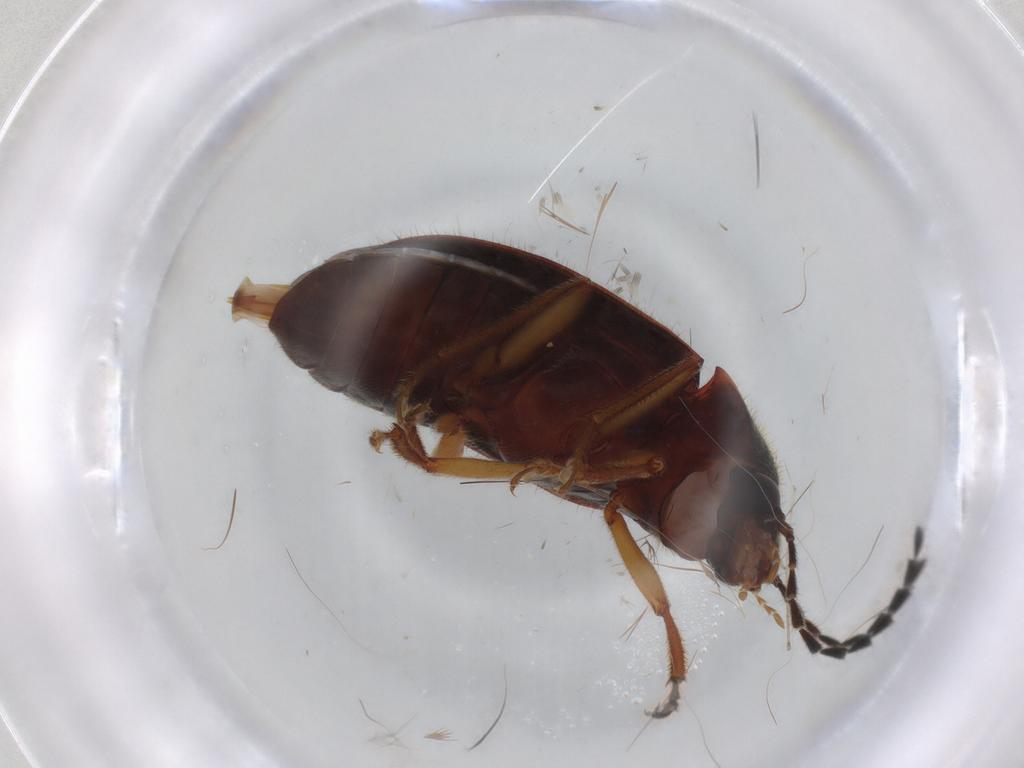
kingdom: Animalia
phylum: Arthropoda
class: Insecta
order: Coleoptera
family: Ptilodactylidae
